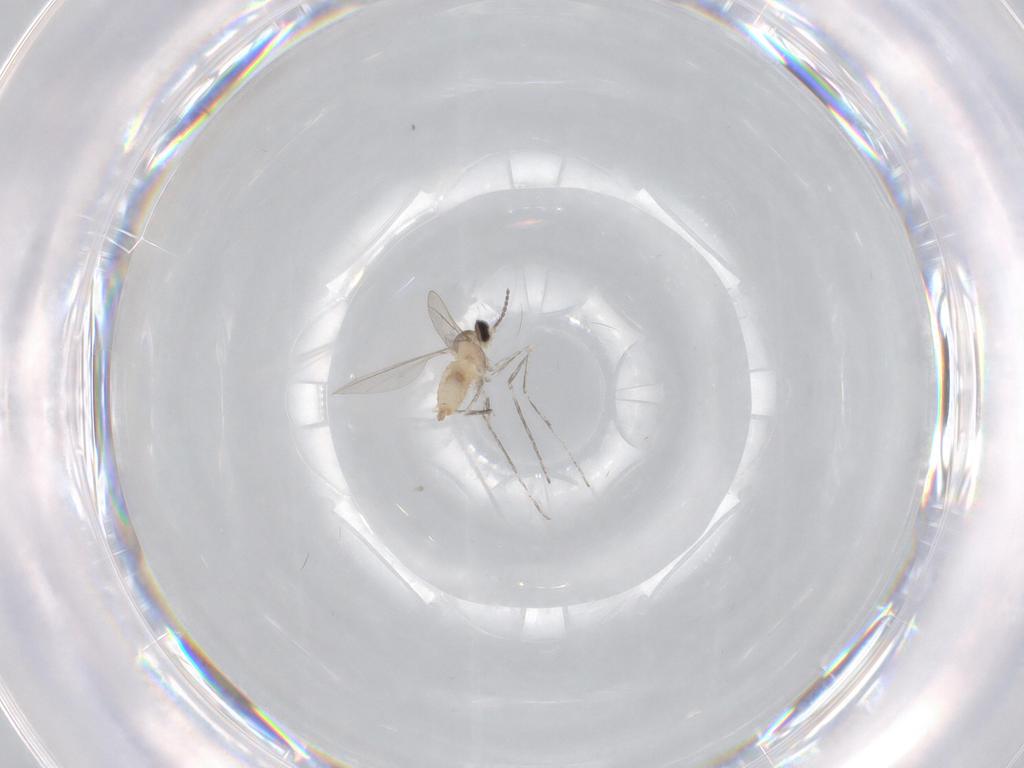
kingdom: Animalia
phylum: Arthropoda
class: Insecta
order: Diptera
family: Cecidomyiidae
